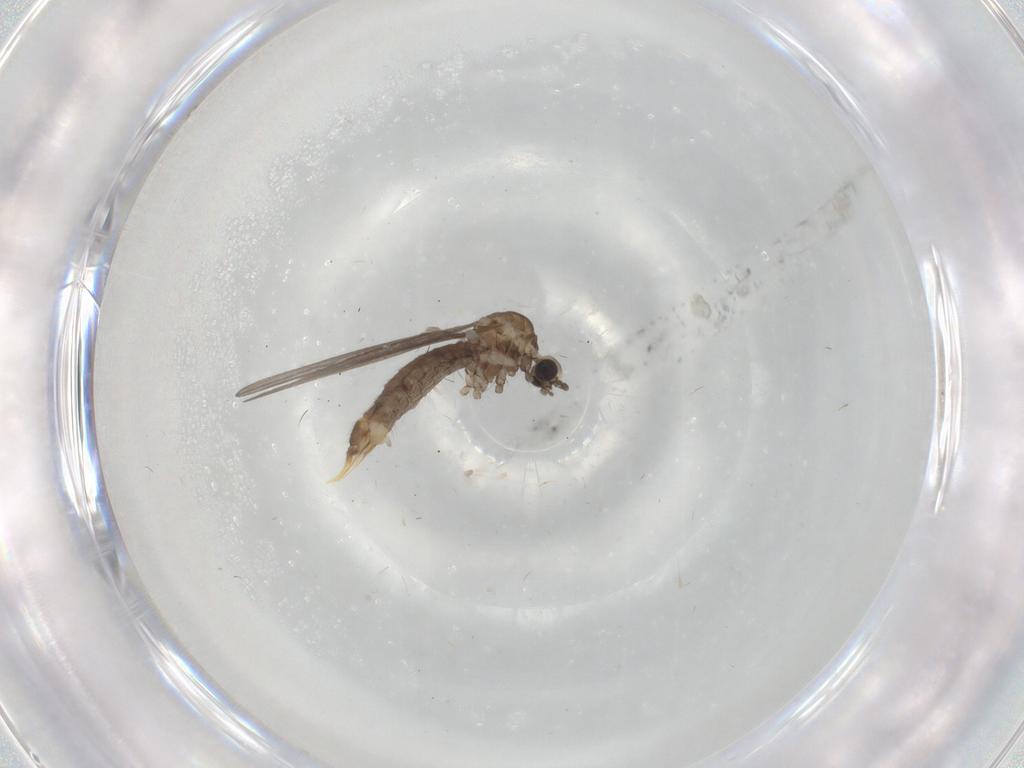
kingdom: Animalia
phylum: Arthropoda
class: Insecta
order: Diptera
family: Limoniidae
